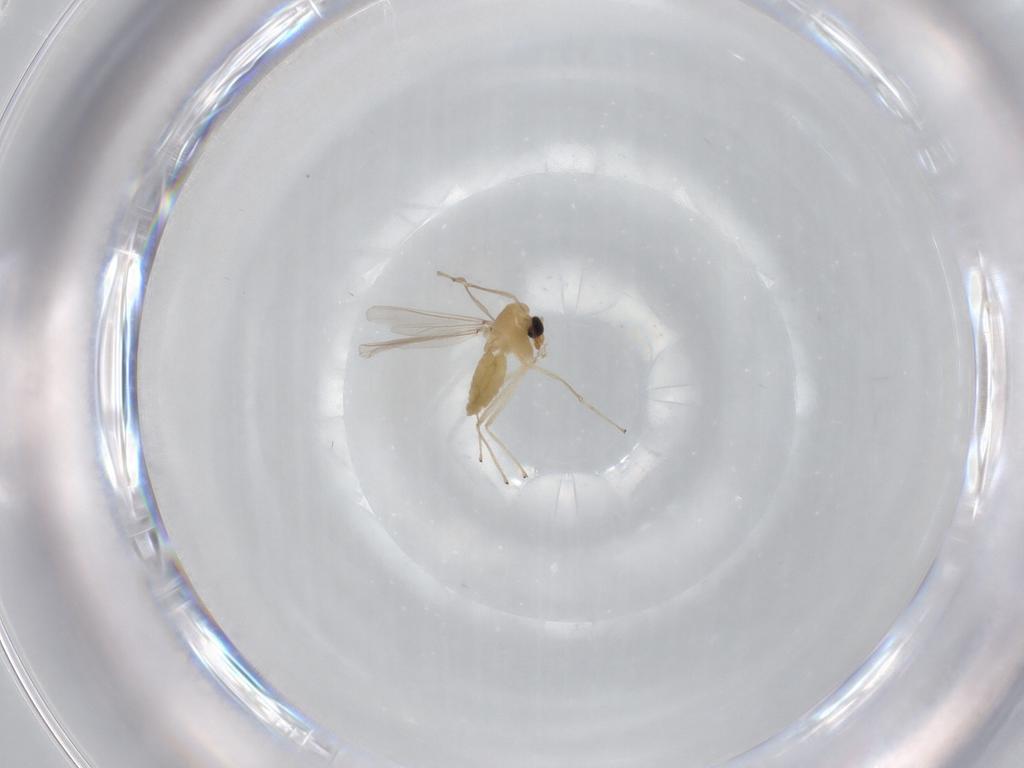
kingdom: Animalia
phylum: Arthropoda
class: Insecta
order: Diptera
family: Chironomidae
